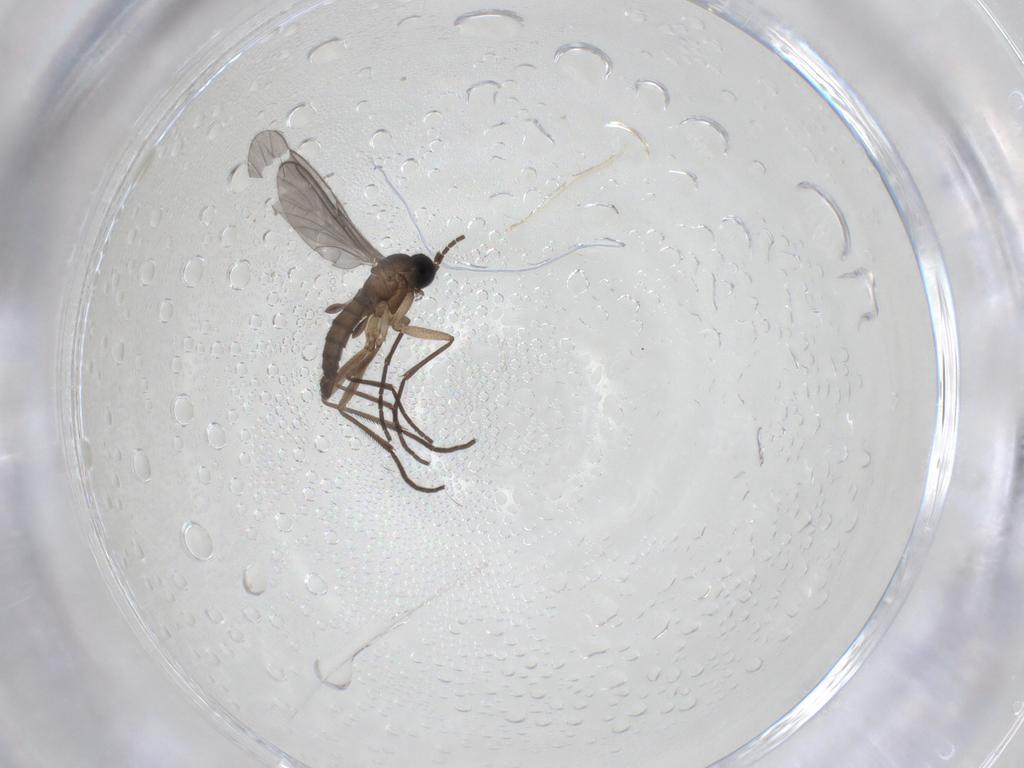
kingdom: Animalia
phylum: Arthropoda
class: Insecta
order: Diptera
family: Sciaridae
